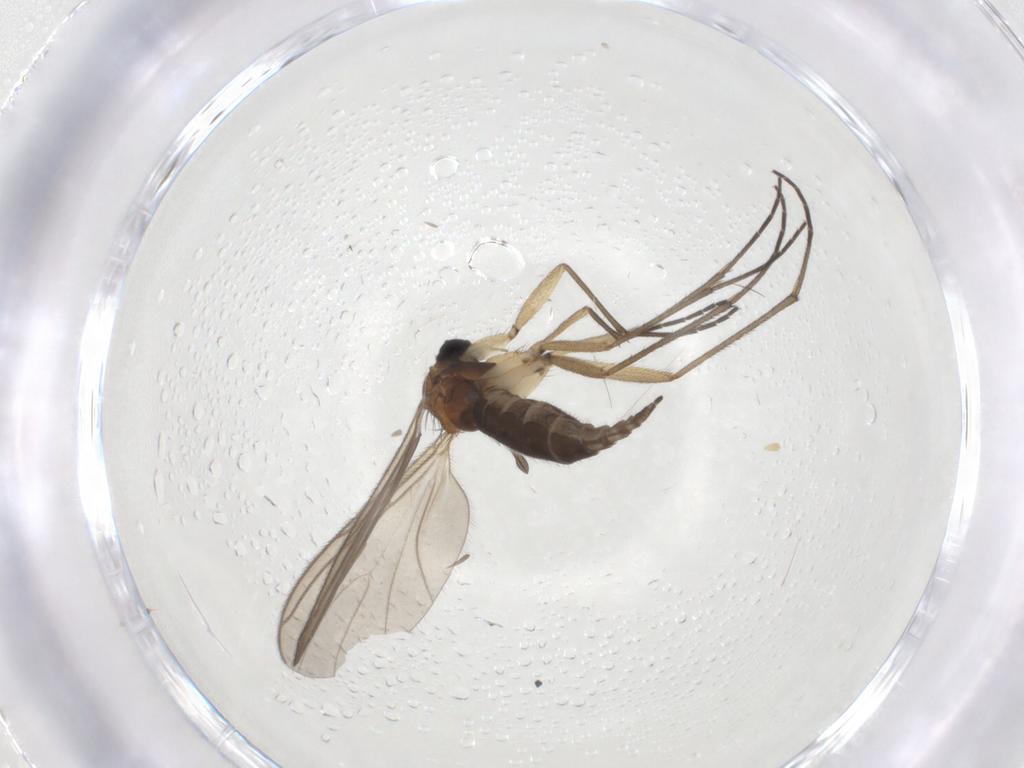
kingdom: Animalia
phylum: Arthropoda
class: Insecta
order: Diptera
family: Sciaridae
